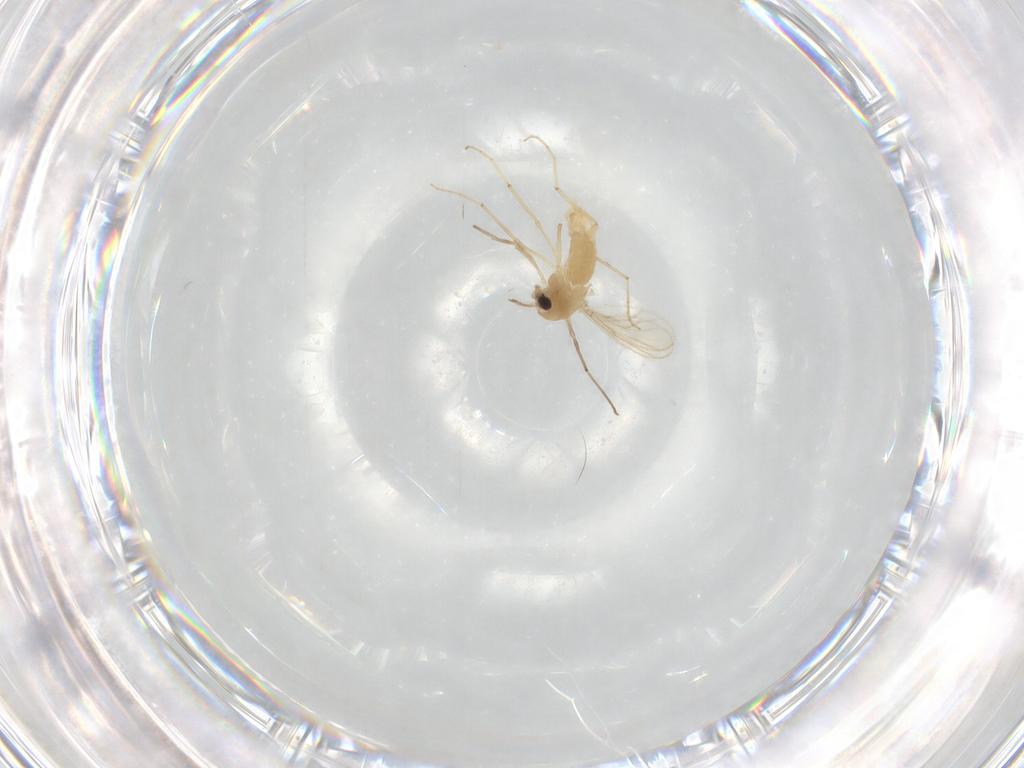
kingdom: Animalia
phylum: Arthropoda
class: Insecta
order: Diptera
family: Chironomidae
